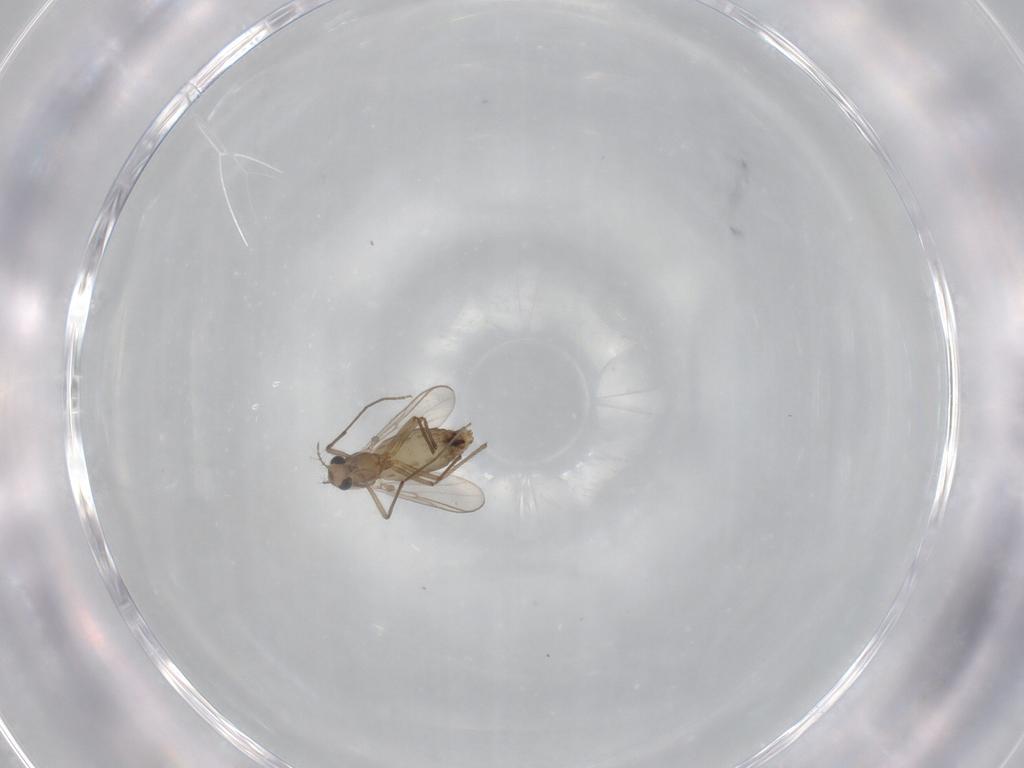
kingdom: Animalia
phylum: Arthropoda
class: Insecta
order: Diptera
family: Chironomidae
